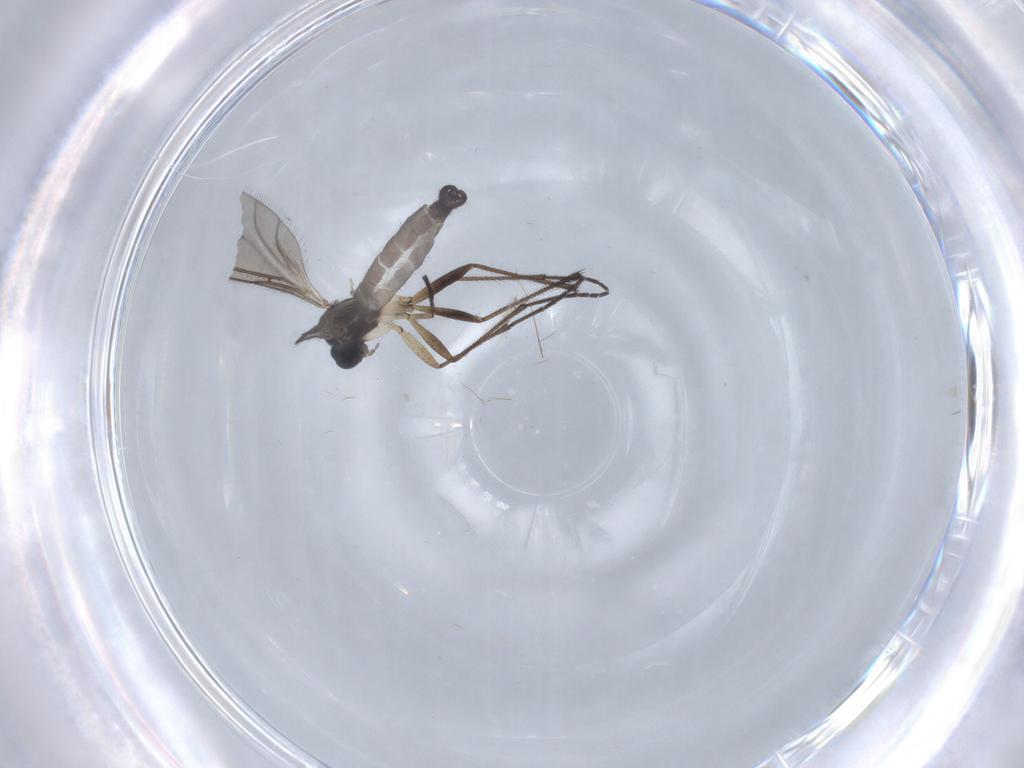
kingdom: Animalia
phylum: Arthropoda
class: Insecta
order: Diptera
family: Sciaridae
